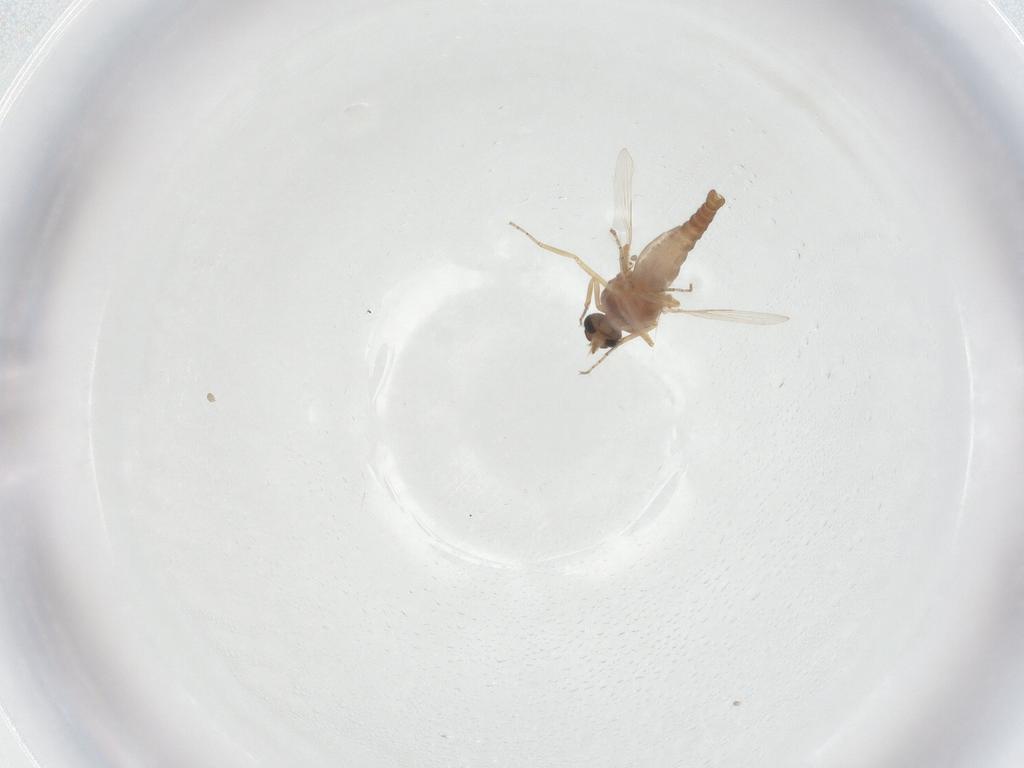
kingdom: Animalia
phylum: Arthropoda
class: Insecta
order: Diptera
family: Ceratopogonidae
